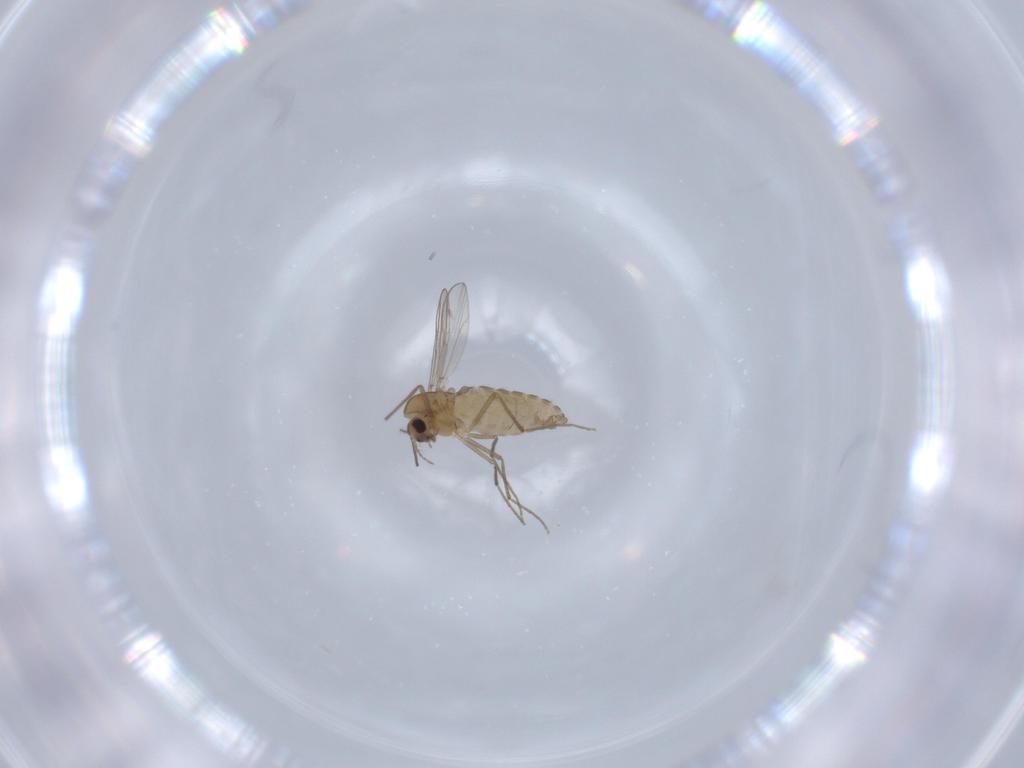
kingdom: Animalia
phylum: Arthropoda
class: Insecta
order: Diptera
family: Chironomidae
